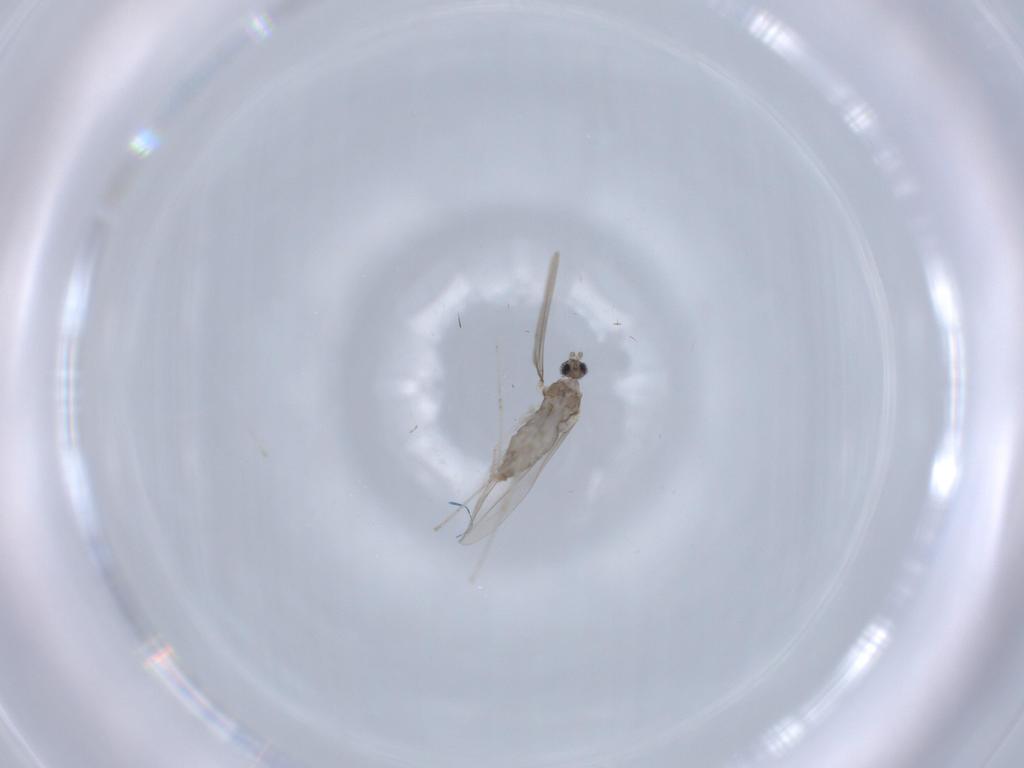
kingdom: Animalia
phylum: Arthropoda
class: Insecta
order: Diptera
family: Cecidomyiidae
